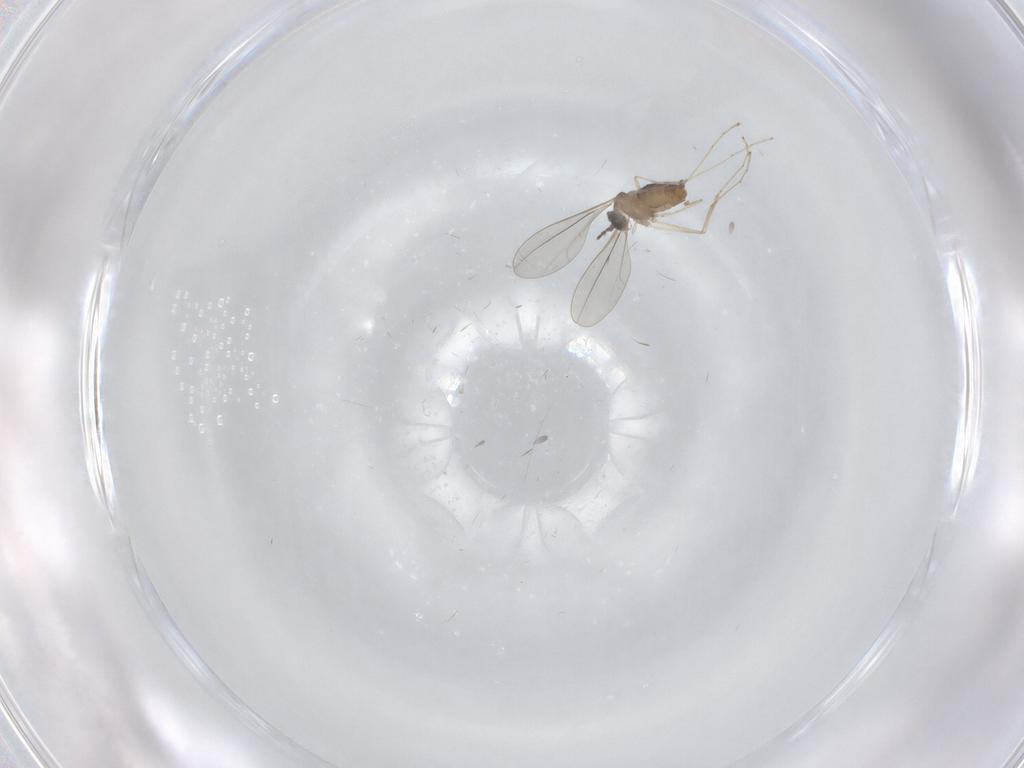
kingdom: Animalia
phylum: Arthropoda
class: Insecta
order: Diptera
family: Cecidomyiidae
